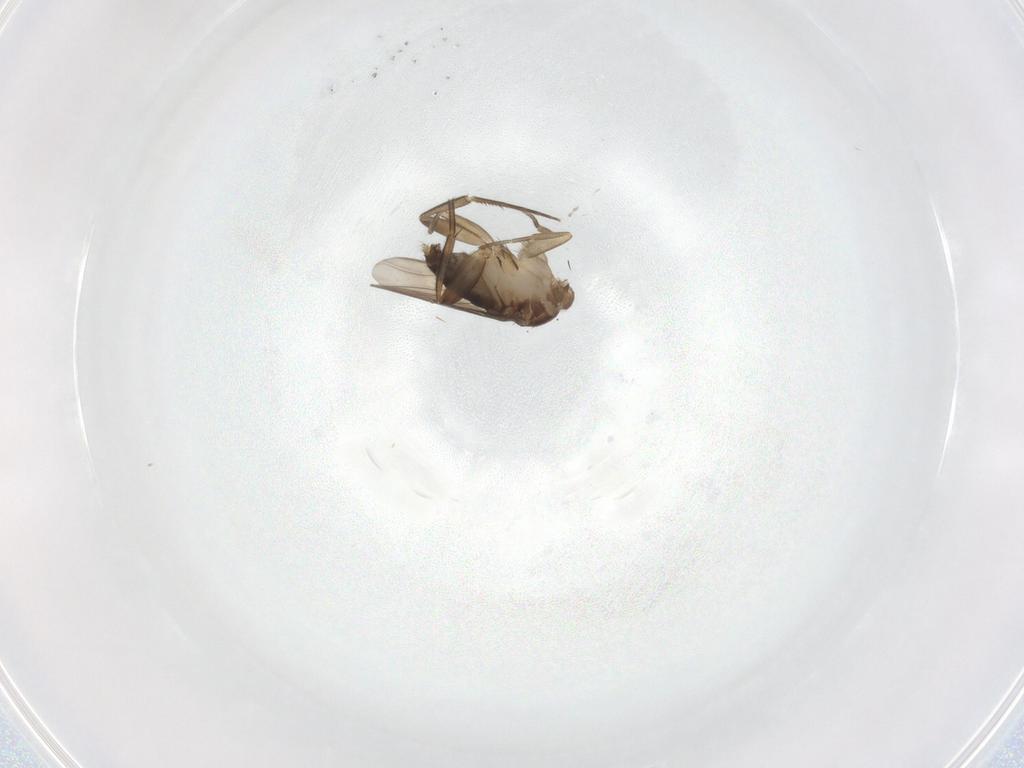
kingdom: Animalia
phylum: Arthropoda
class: Insecta
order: Diptera
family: Phoridae
